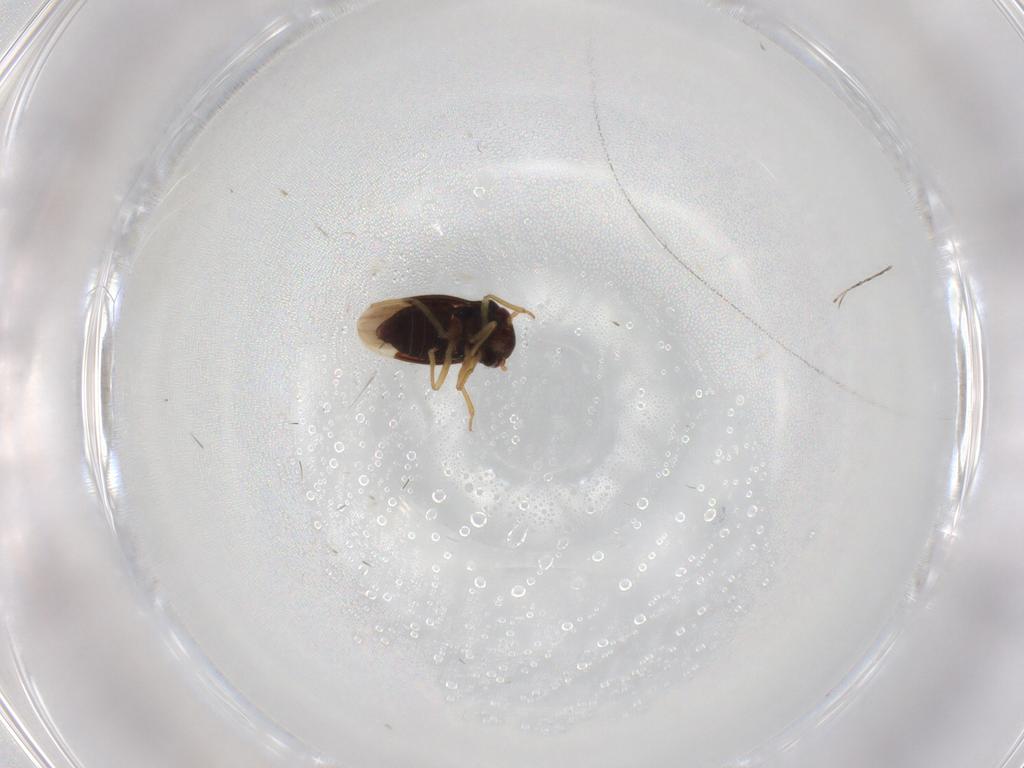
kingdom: Animalia
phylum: Arthropoda
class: Insecta
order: Hemiptera
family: Schizopteridae
